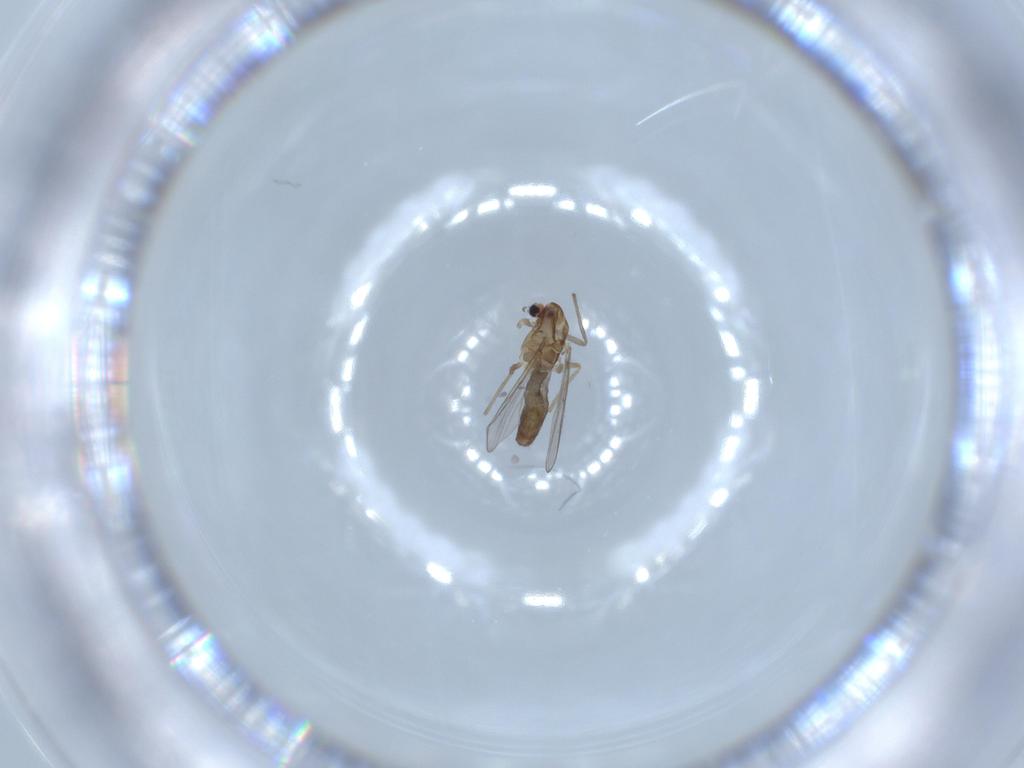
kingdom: Animalia
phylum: Arthropoda
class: Insecta
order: Diptera
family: Chironomidae
